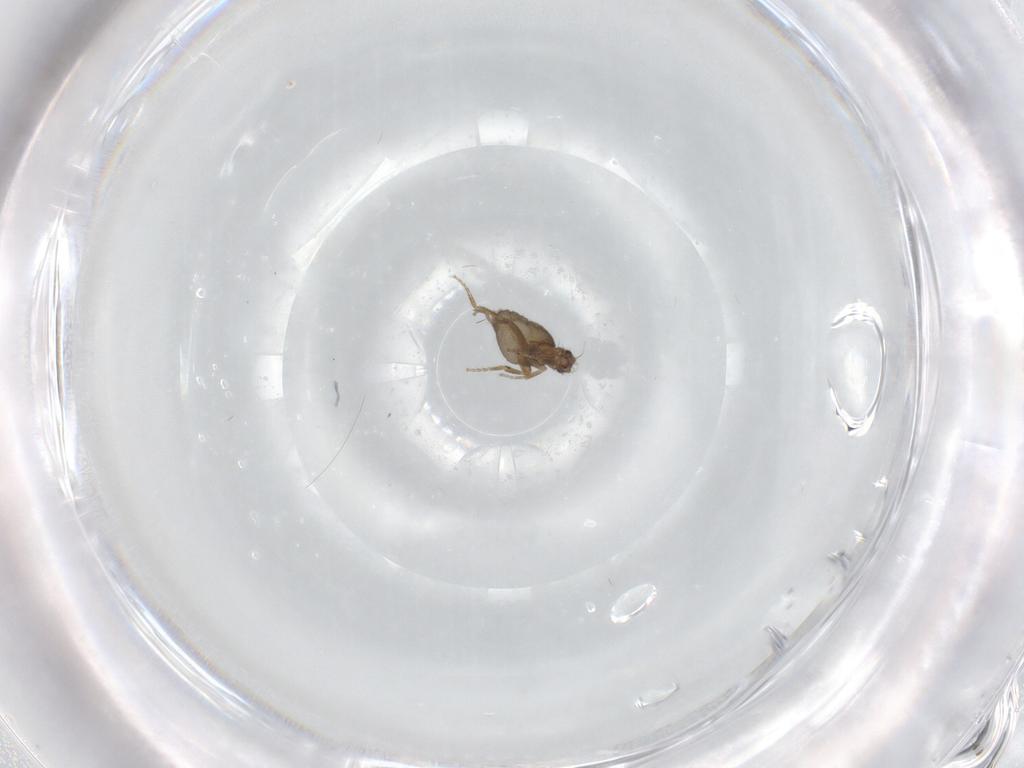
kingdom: Animalia
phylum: Arthropoda
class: Insecta
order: Diptera
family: Phoridae
